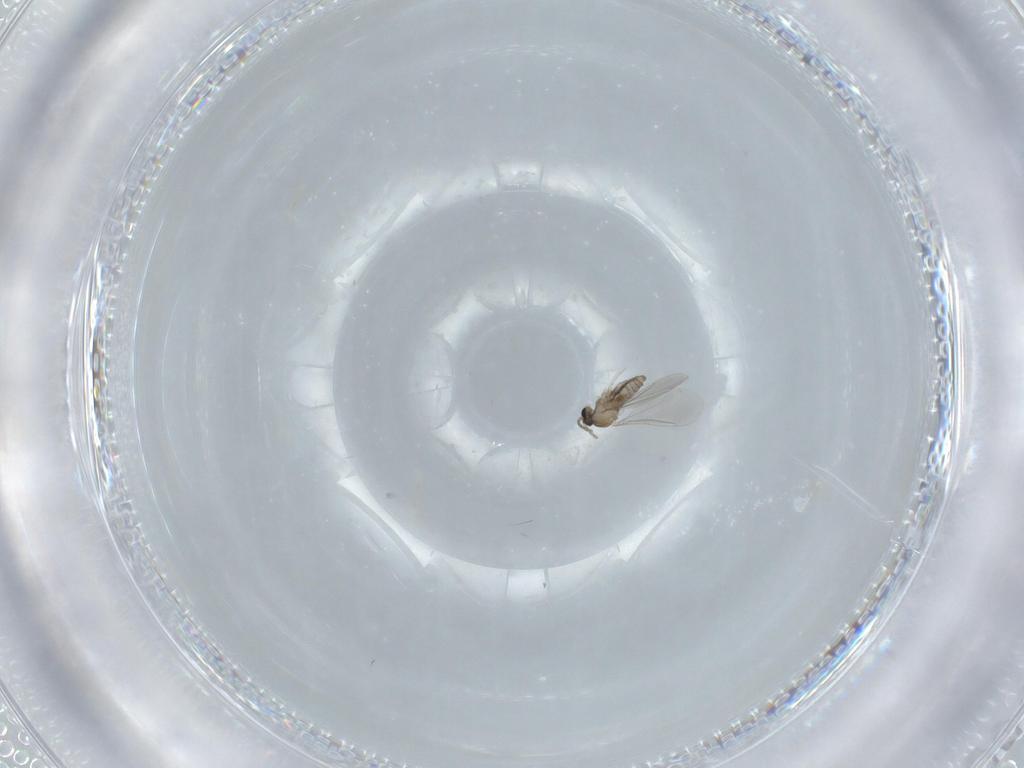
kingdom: Animalia
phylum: Arthropoda
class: Insecta
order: Diptera
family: Cecidomyiidae
